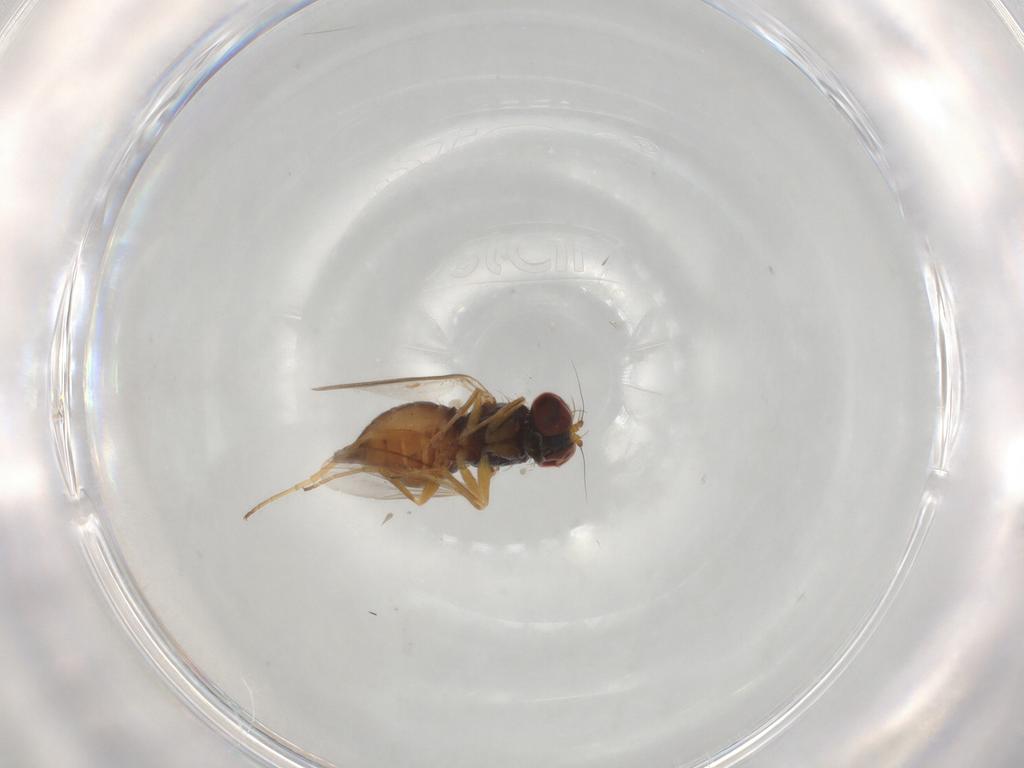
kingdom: Animalia
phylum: Arthropoda
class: Insecta
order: Diptera
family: Dolichopodidae
